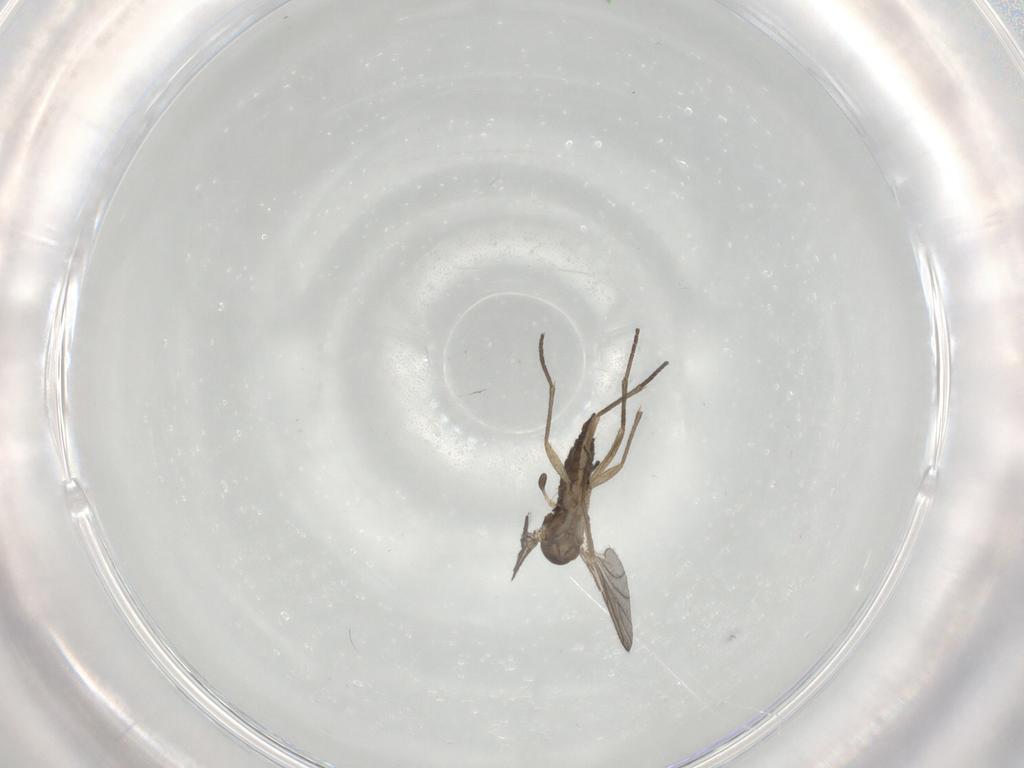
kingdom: Animalia
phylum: Arthropoda
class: Insecta
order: Diptera
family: Sciaridae
